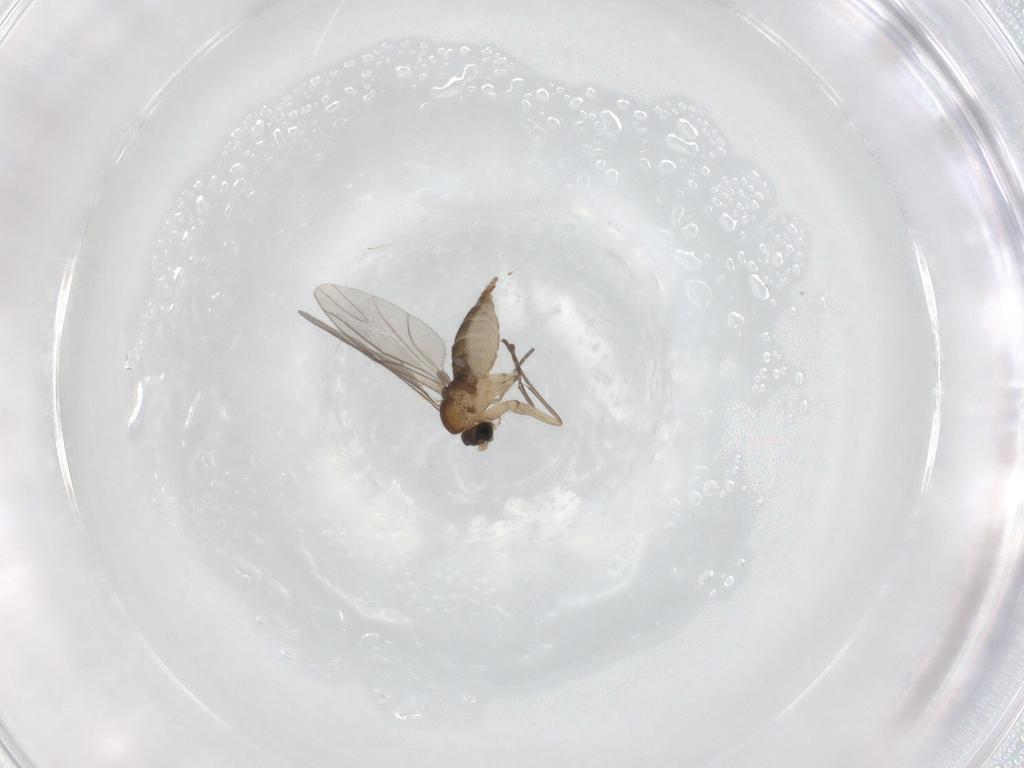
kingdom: Animalia
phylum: Arthropoda
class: Insecta
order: Diptera
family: Sciaridae
